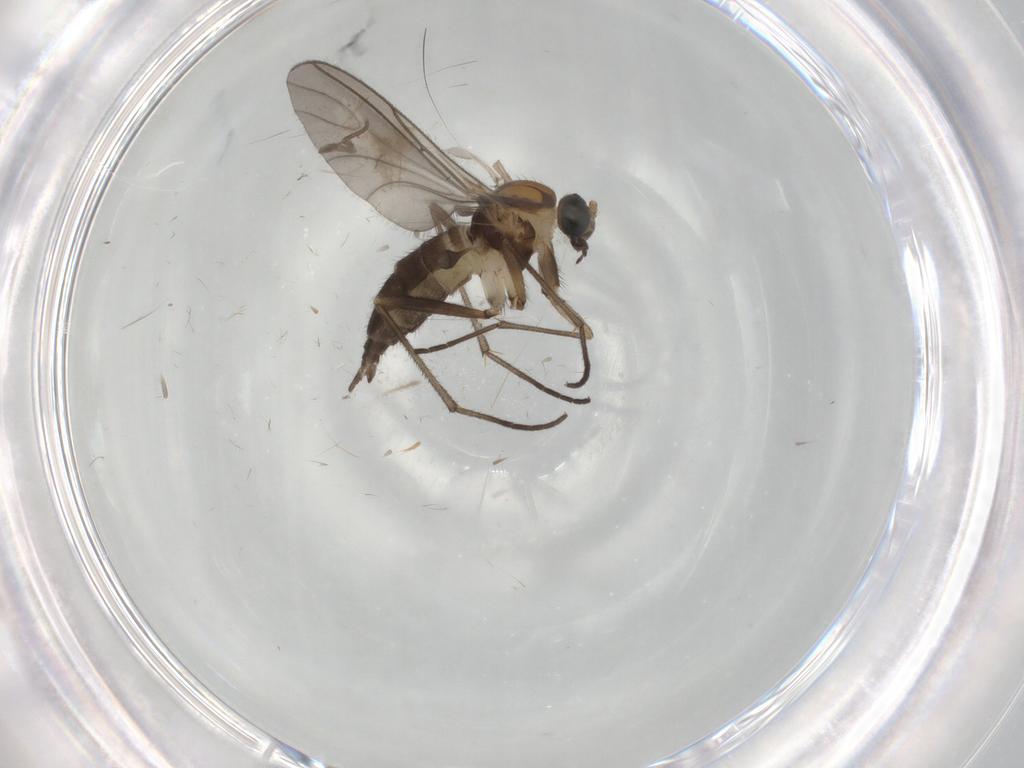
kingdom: Animalia
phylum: Arthropoda
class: Insecta
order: Diptera
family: Sciaridae
